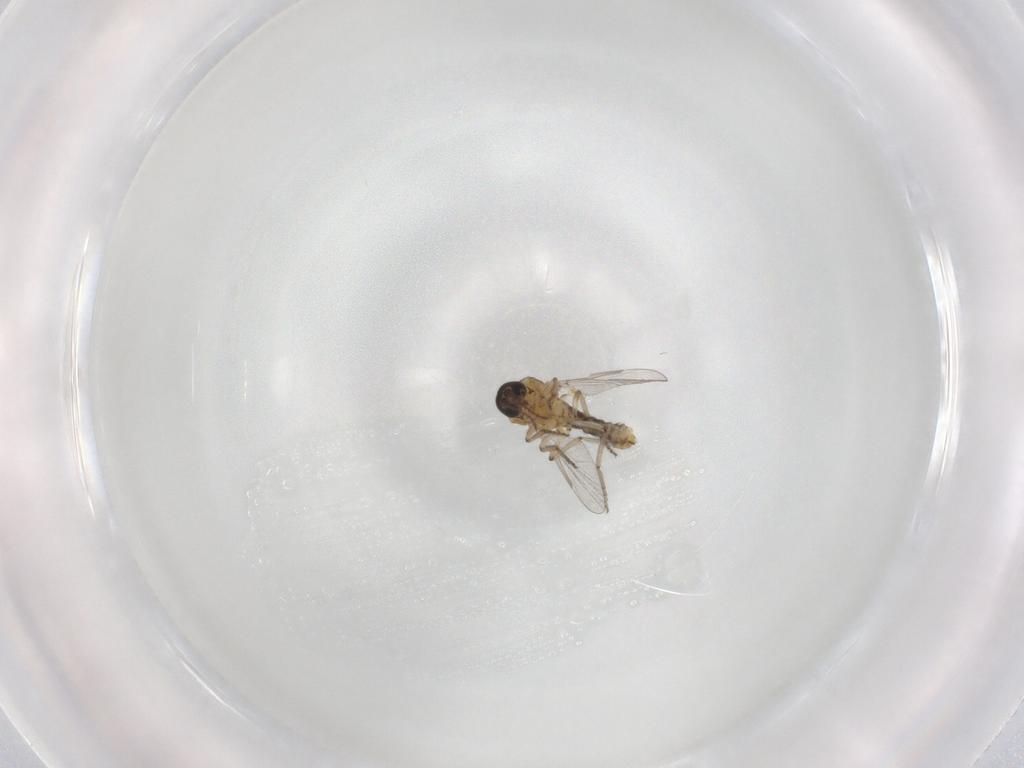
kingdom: Animalia
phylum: Arthropoda
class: Insecta
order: Diptera
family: Ceratopogonidae
